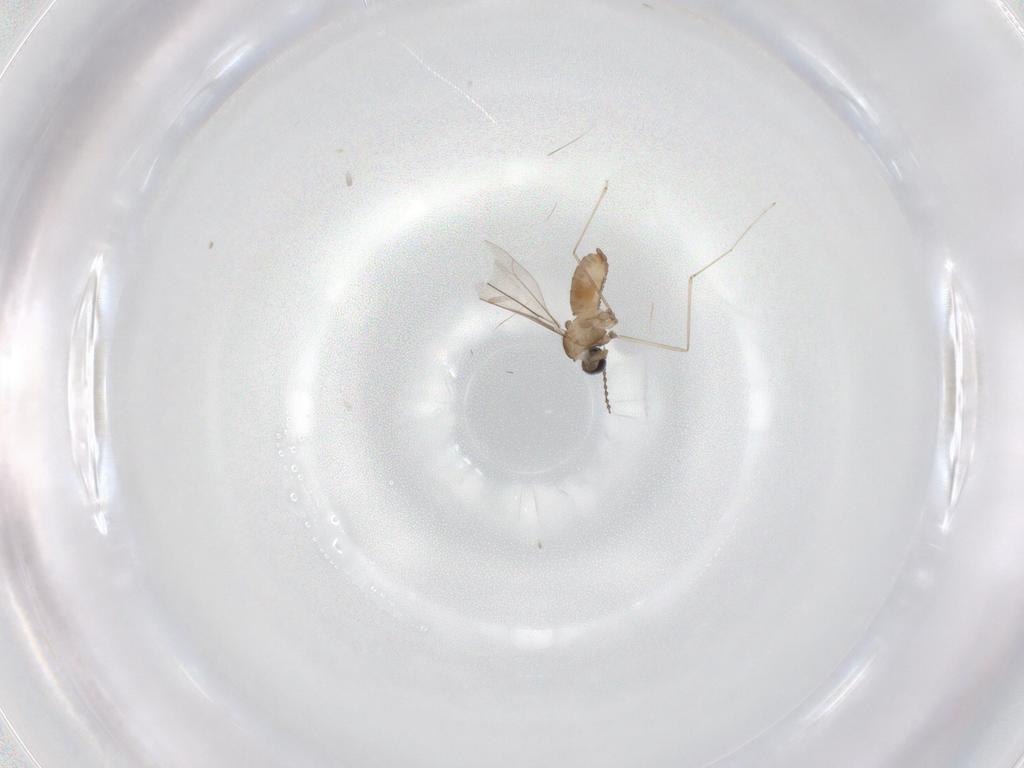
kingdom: Animalia
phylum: Arthropoda
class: Insecta
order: Diptera
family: Cecidomyiidae
